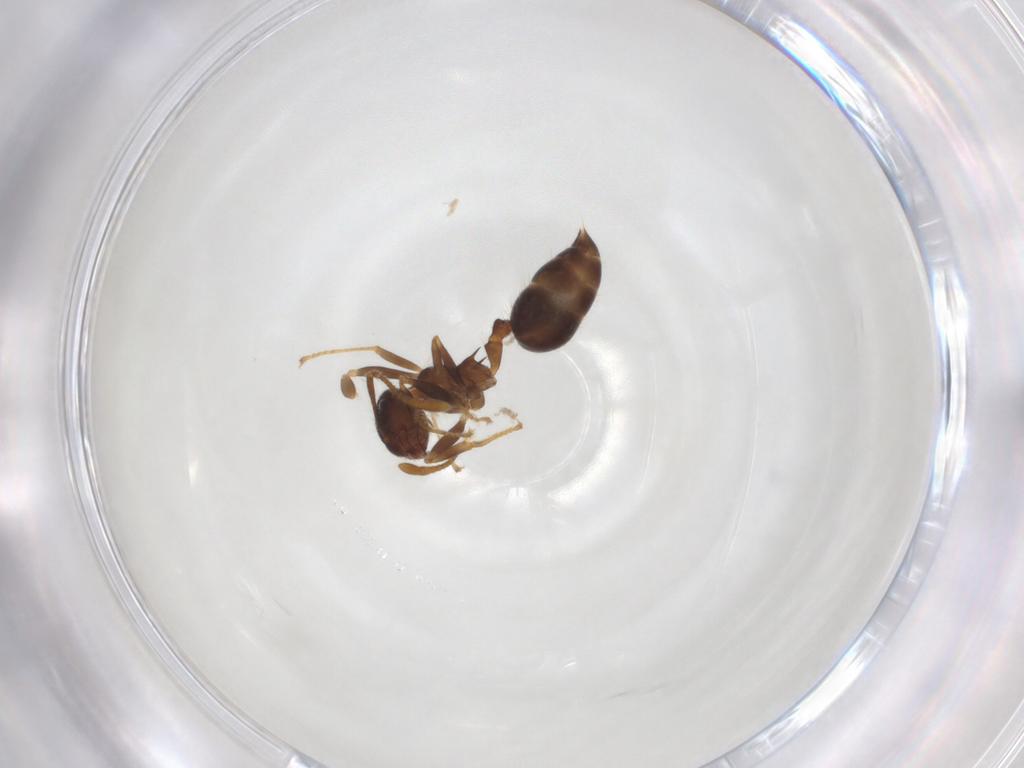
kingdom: Animalia
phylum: Arthropoda
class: Insecta
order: Hymenoptera
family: Formicidae
